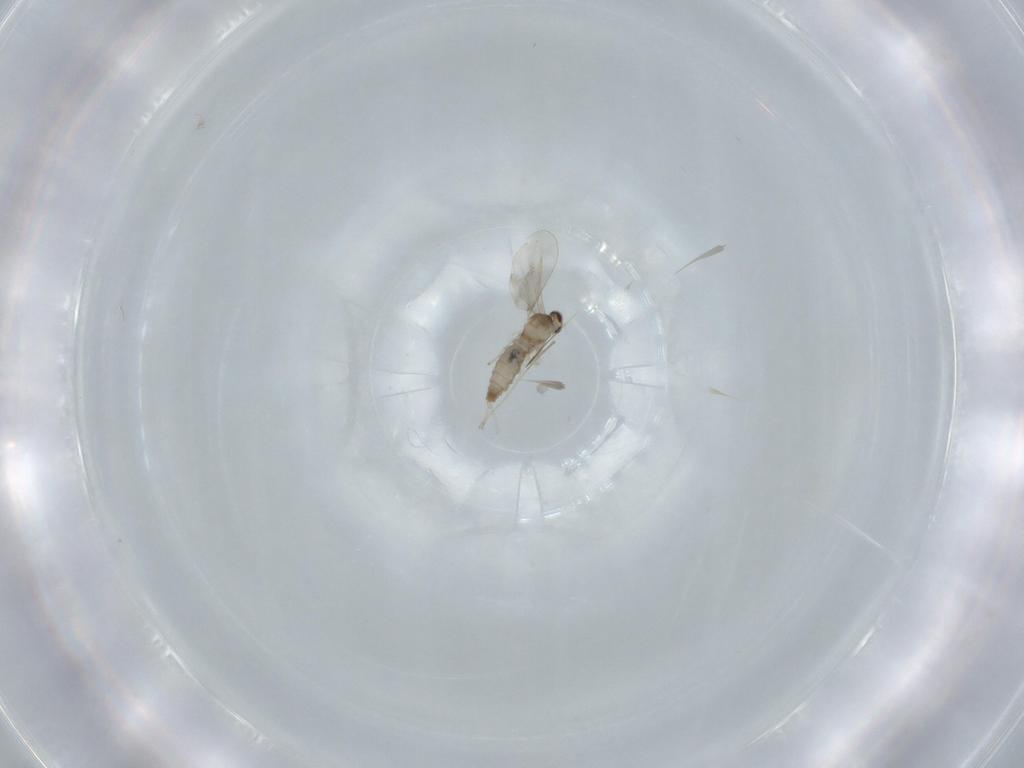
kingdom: Animalia
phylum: Arthropoda
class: Insecta
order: Diptera
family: Cecidomyiidae
